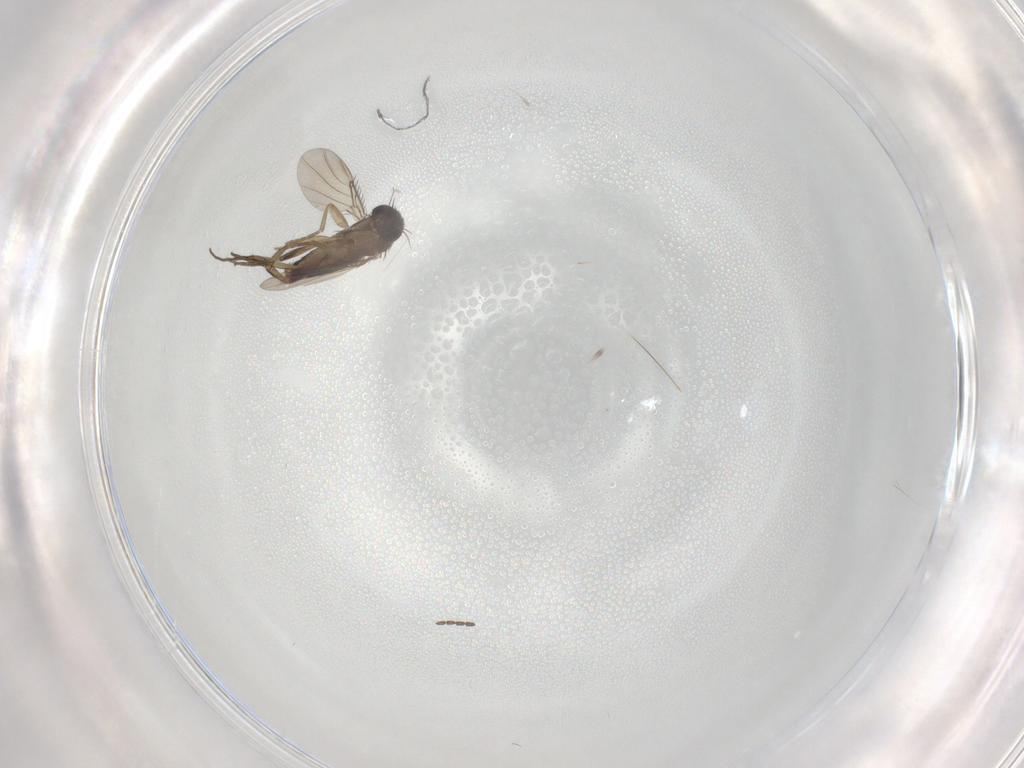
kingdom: Animalia
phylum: Arthropoda
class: Insecta
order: Diptera
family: Phoridae
